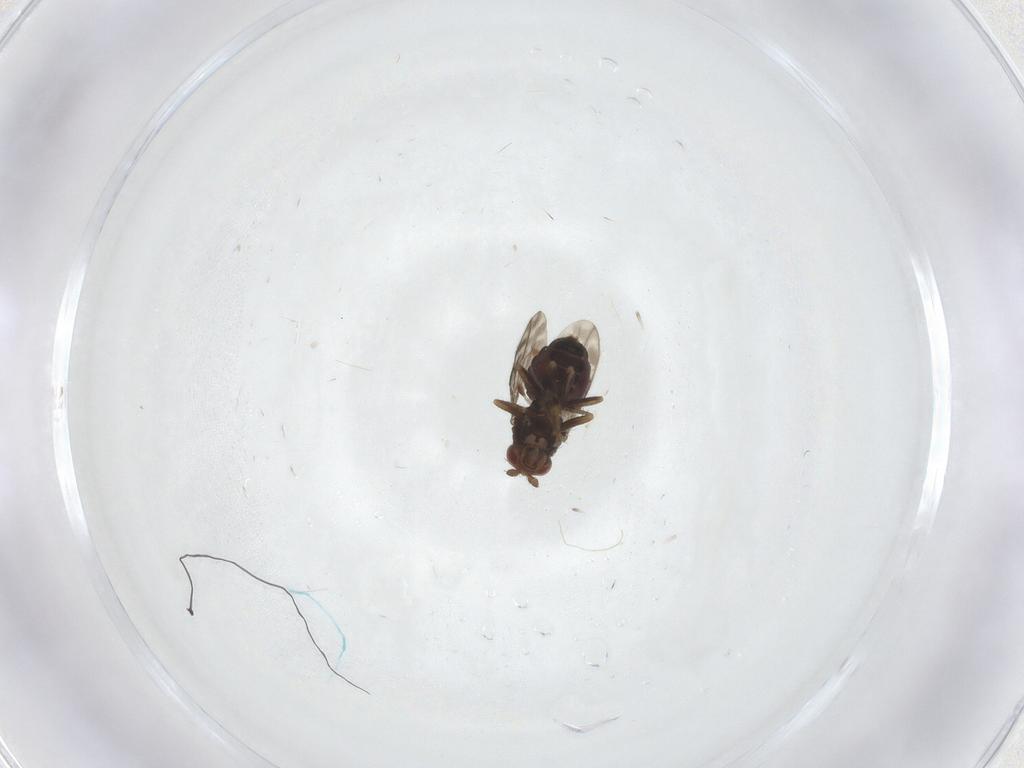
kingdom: Animalia
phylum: Arthropoda
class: Insecta
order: Diptera
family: Sphaeroceridae
